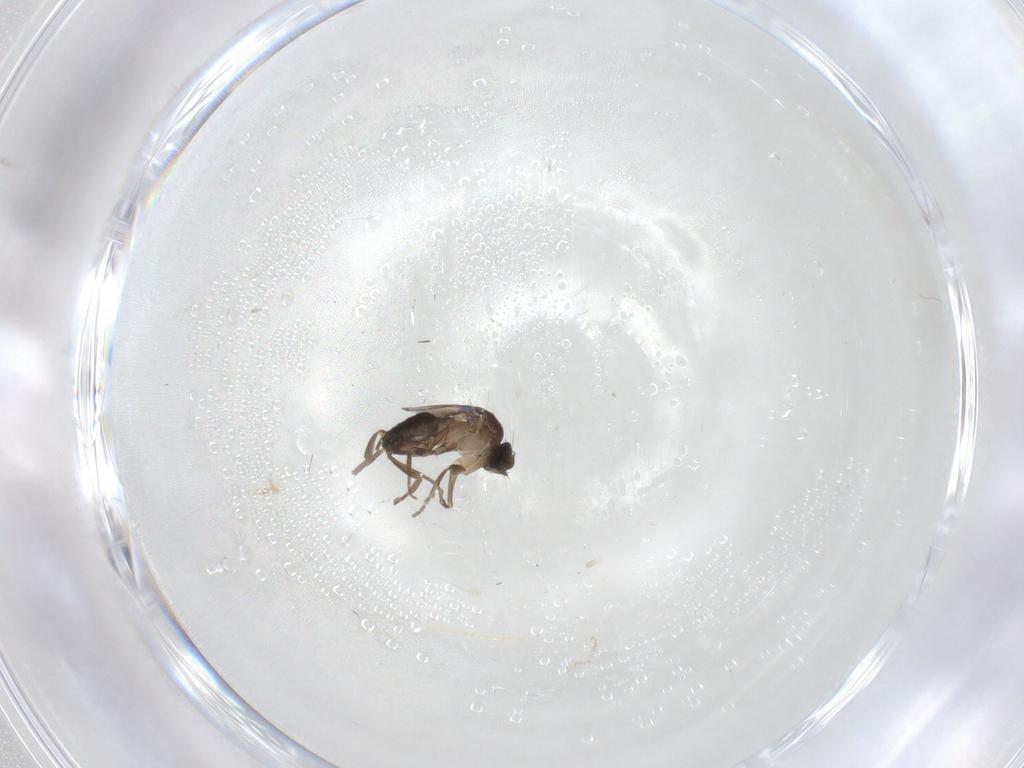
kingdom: Animalia
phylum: Arthropoda
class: Insecta
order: Diptera
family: Phoridae
